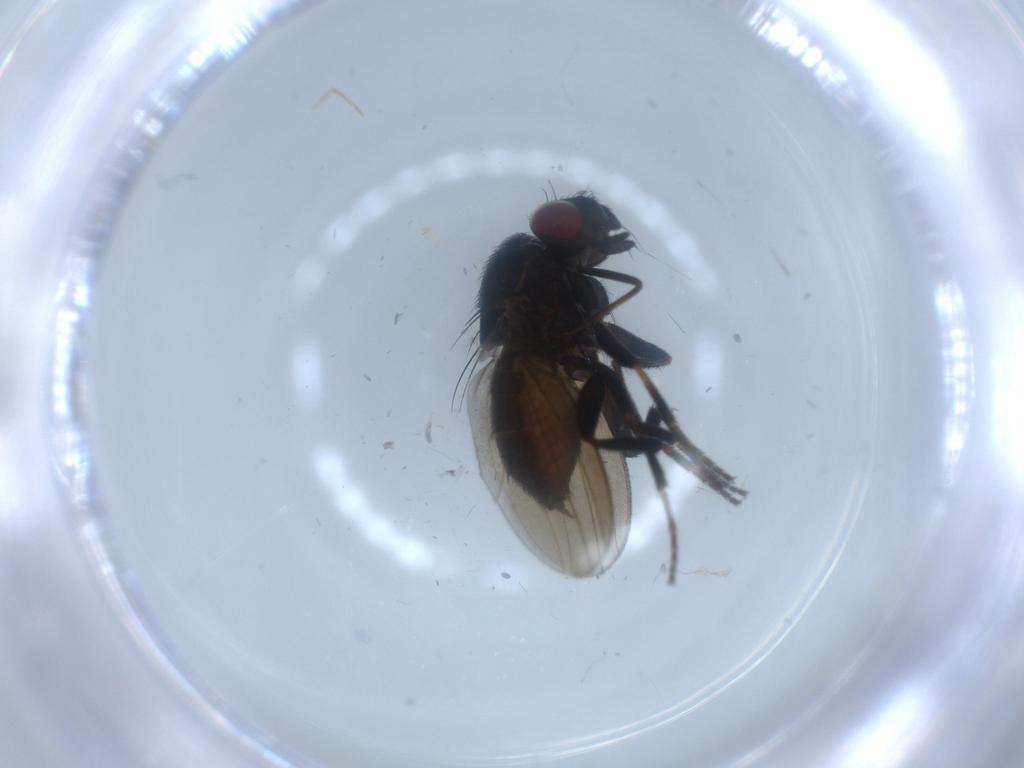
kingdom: Animalia
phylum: Arthropoda
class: Insecta
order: Diptera
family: Milichiidae
